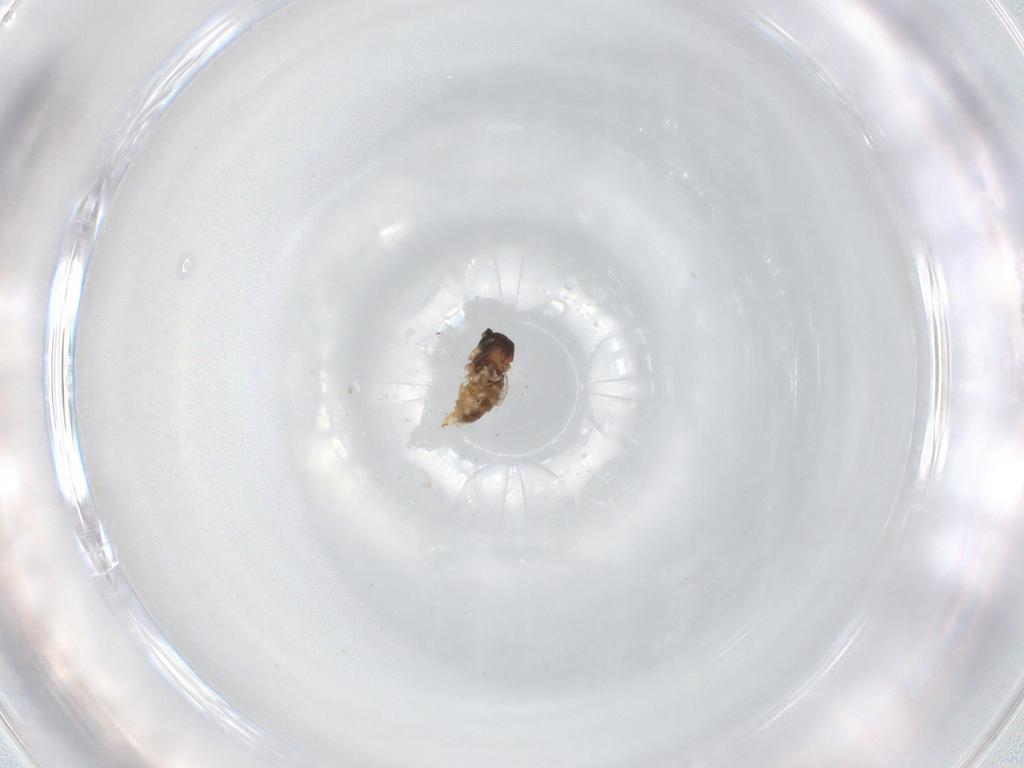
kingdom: Animalia
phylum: Arthropoda
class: Insecta
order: Diptera
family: Cecidomyiidae
